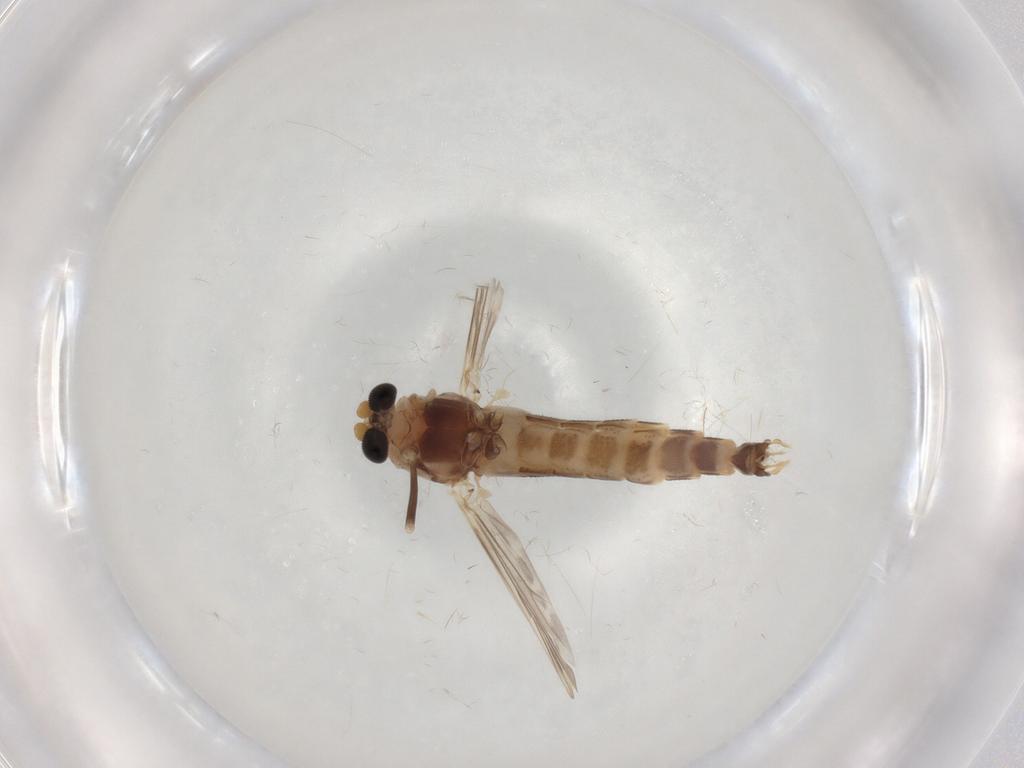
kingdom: Animalia
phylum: Arthropoda
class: Insecta
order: Diptera
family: Chironomidae
